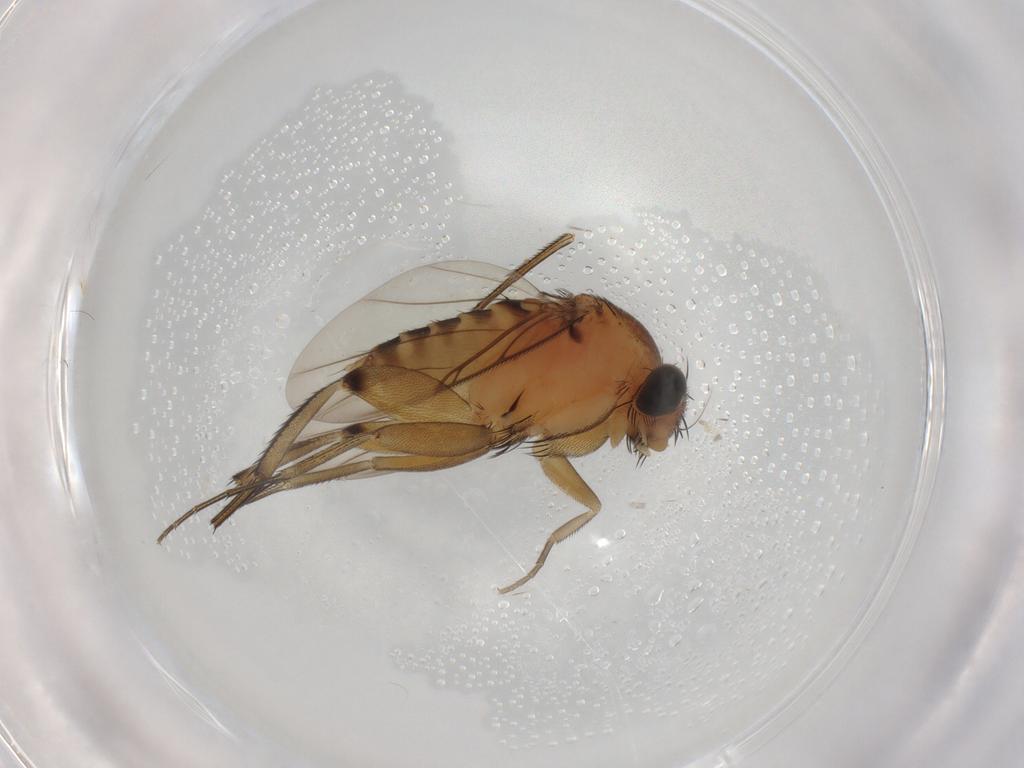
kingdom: Animalia
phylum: Arthropoda
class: Insecta
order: Diptera
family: Phoridae
